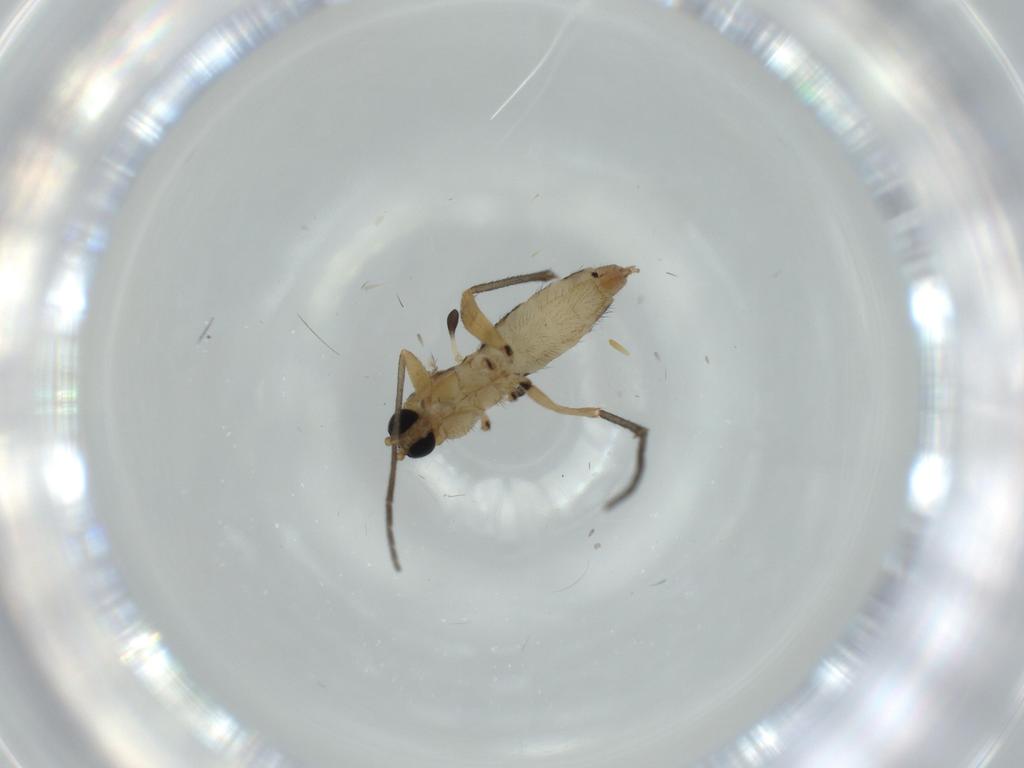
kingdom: Animalia
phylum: Arthropoda
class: Insecta
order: Diptera
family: Sciaridae
